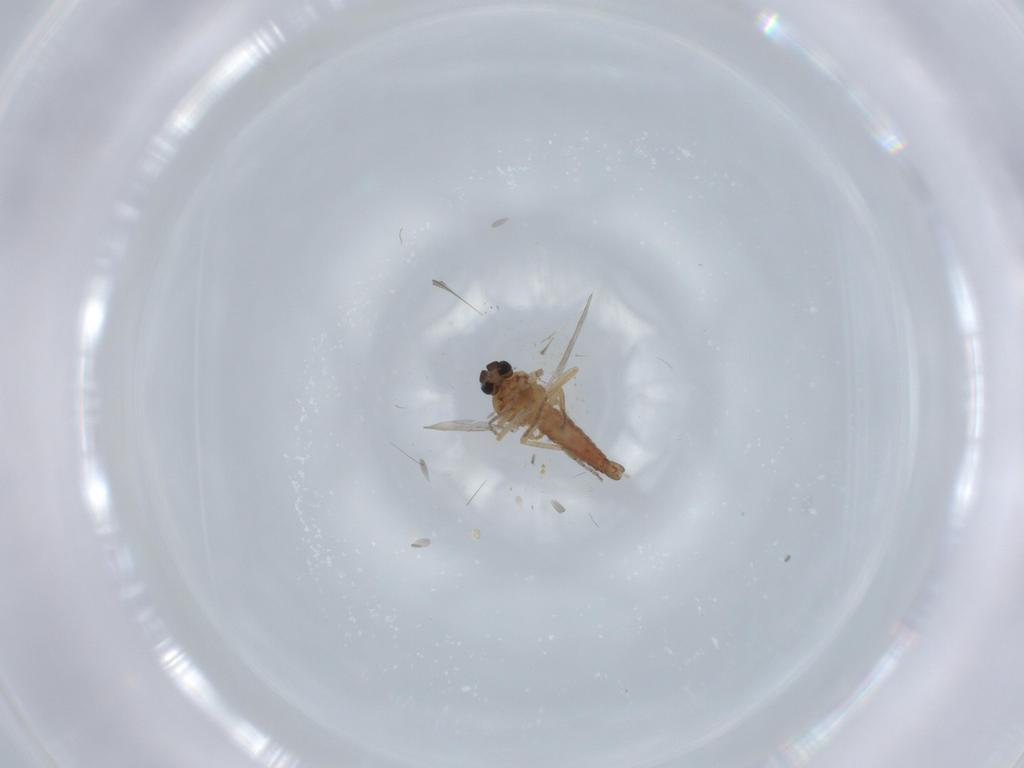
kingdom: Animalia
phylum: Arthropoda
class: Insecta
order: Diptera
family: Ceratopogonidae
